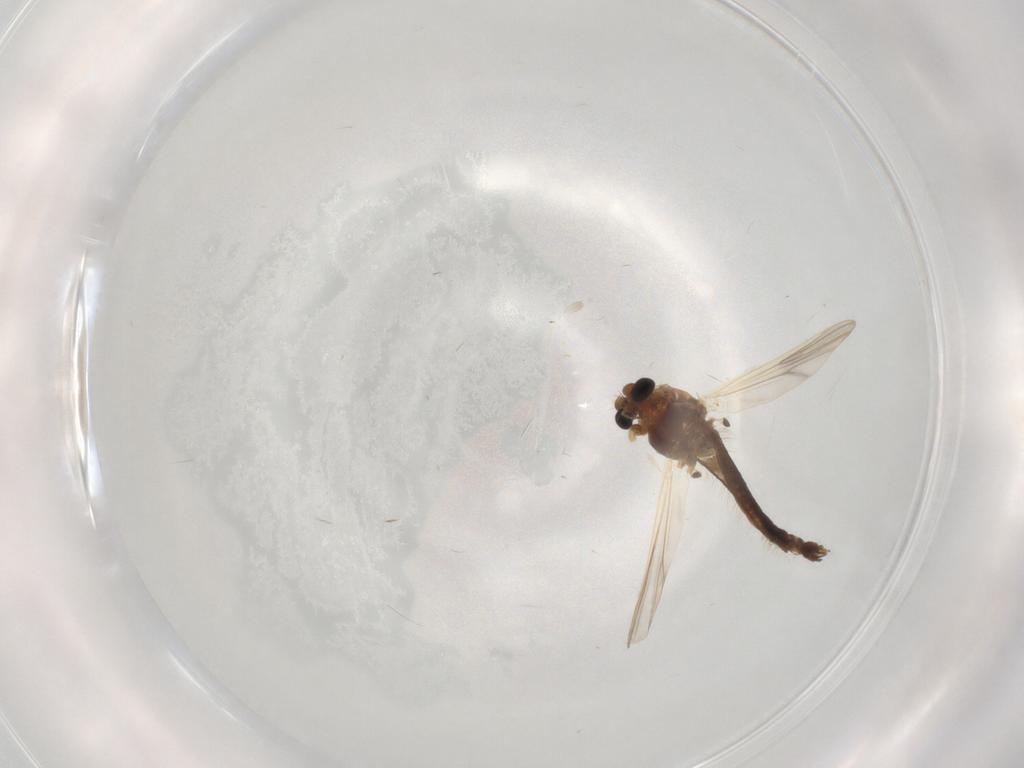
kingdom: Animalia
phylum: Arthropoda
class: Insecta
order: Diptera
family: Chironomidae
